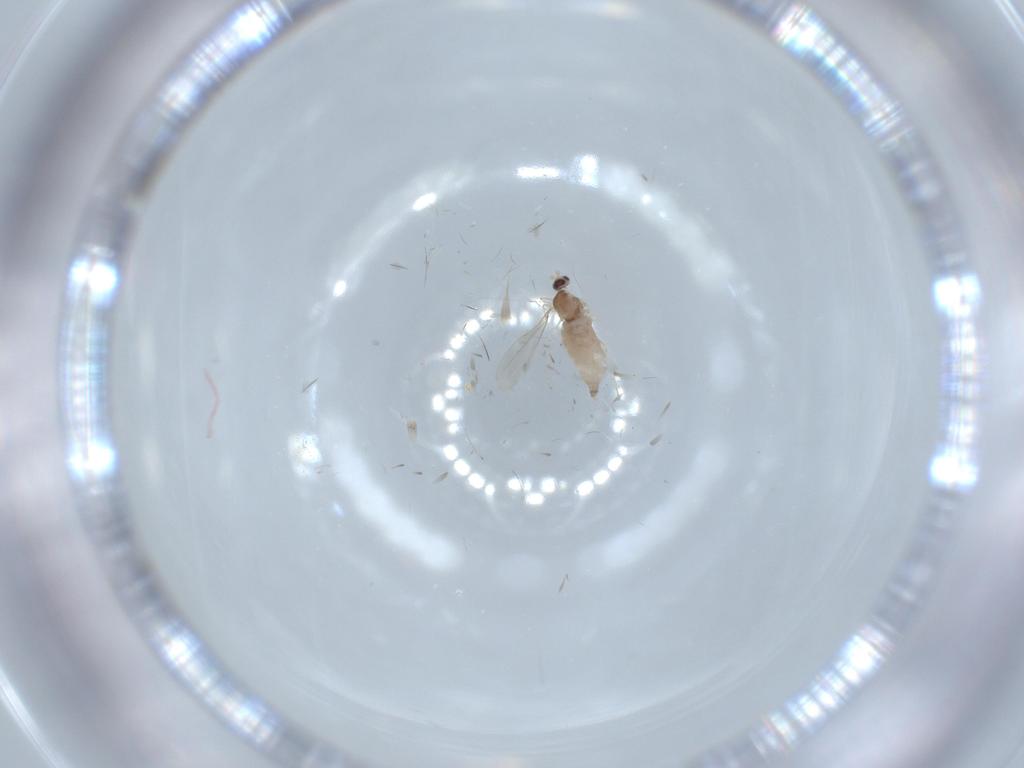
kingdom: Animalia
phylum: Arthropoda
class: Insecta
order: Diptera
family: Cecidomyiidae
